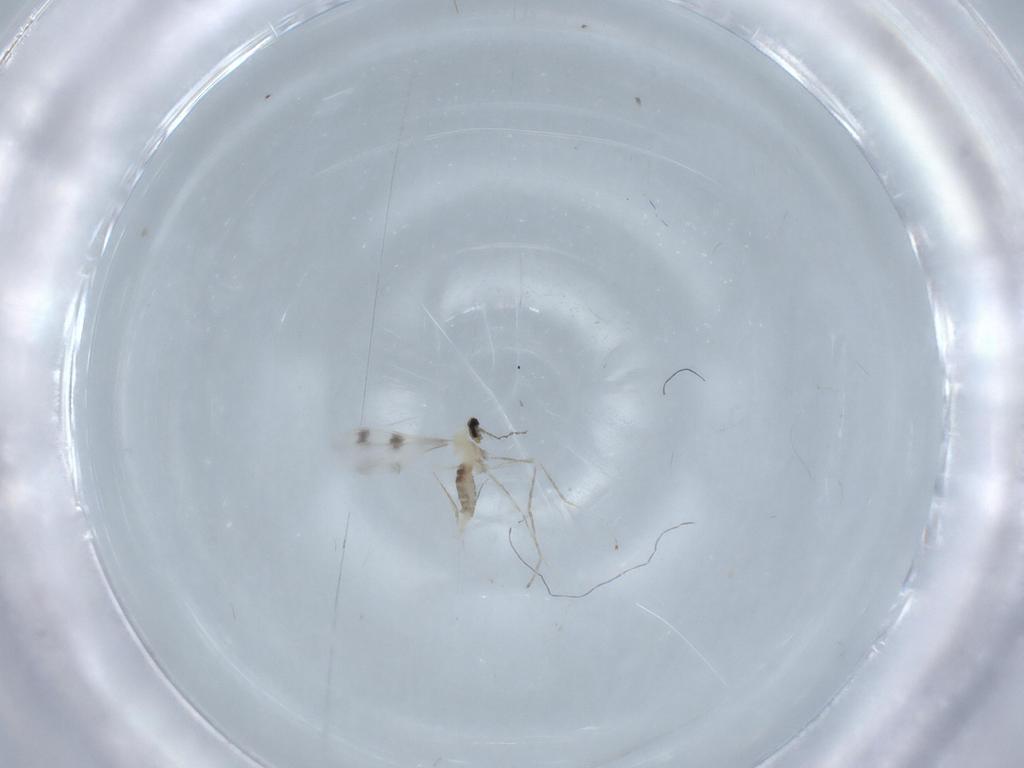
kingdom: Animalia
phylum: Arthropoda
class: Insecta
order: Diptera
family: Cecidomyiidae
